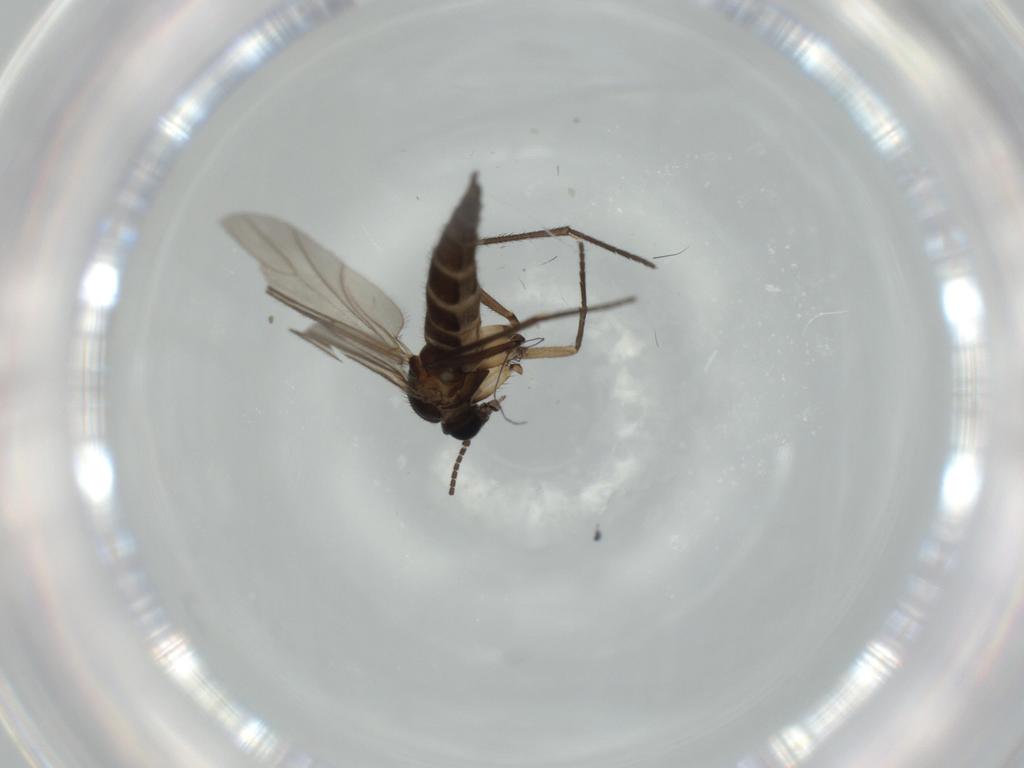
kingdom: Animalia
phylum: Arthropoda
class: Insecta
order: Diptera
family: Sciaridae
